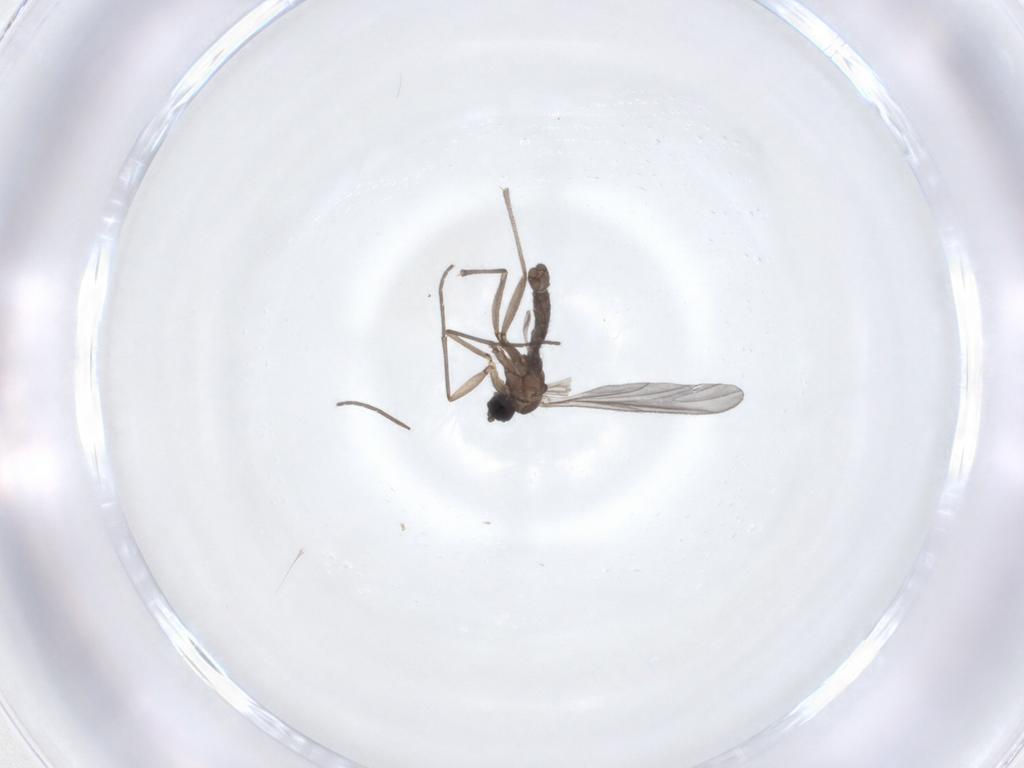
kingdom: Animalia
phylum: Arthropoda
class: Insecta
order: Diptera
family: Sciaridae
